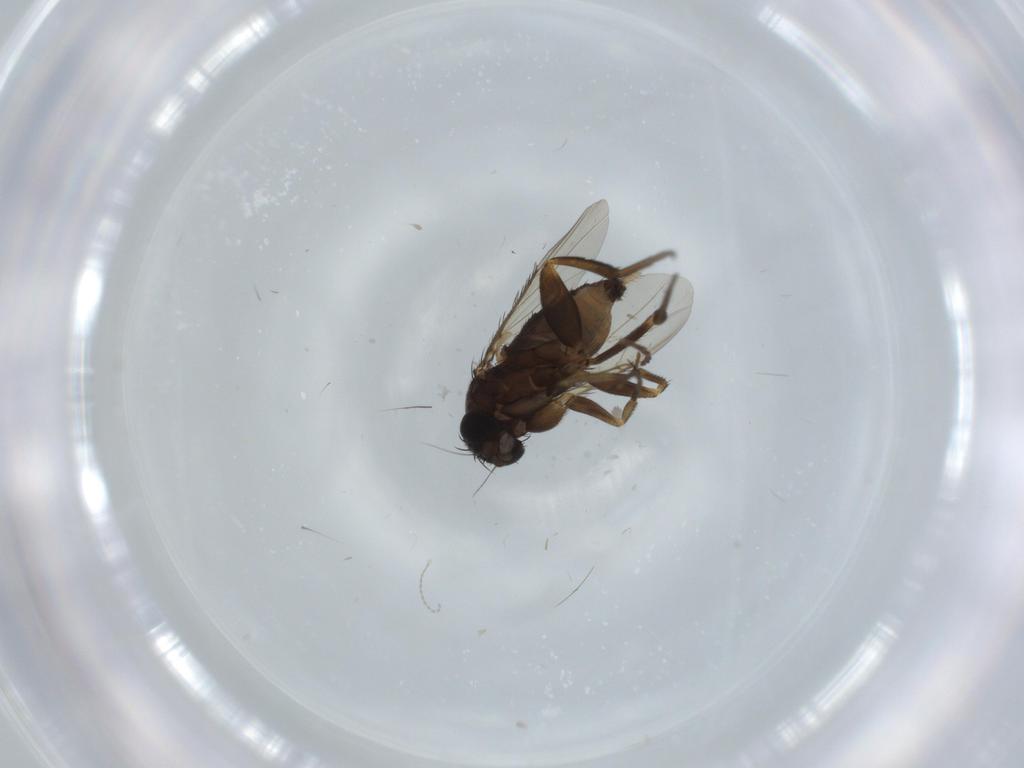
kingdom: Animalia
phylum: Arthropoda
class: Insecta
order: Diptera
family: Phoridae
